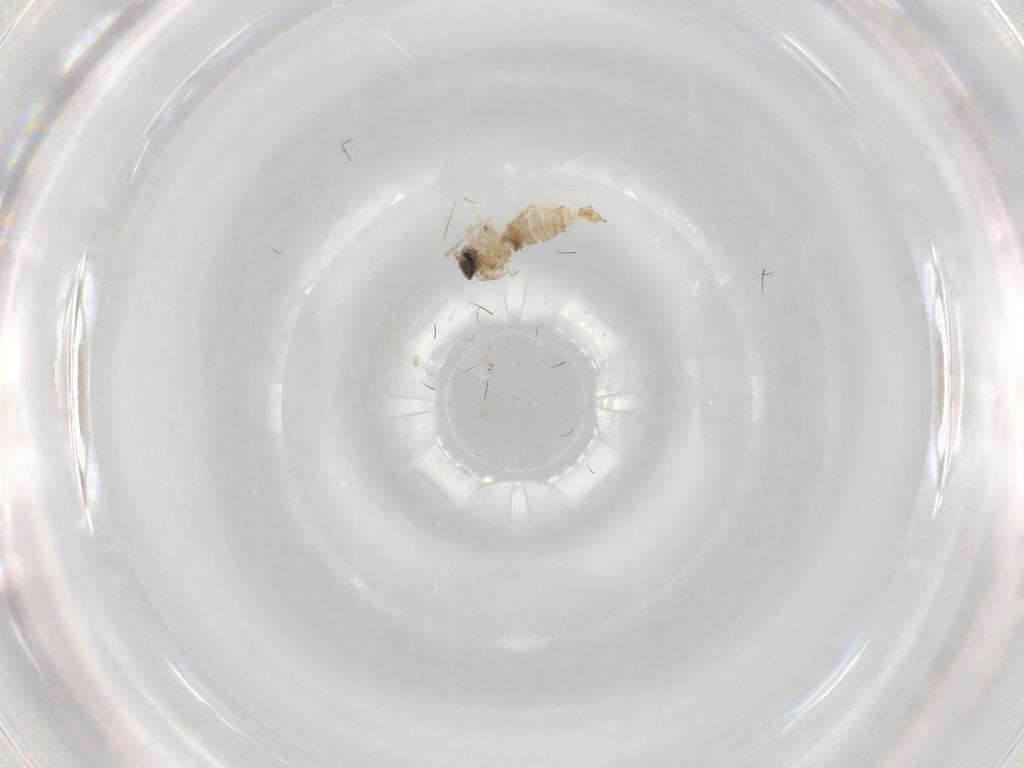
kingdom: Animalia
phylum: Arthropoda
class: Insecta
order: Diptera
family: Cecidomyiidae
